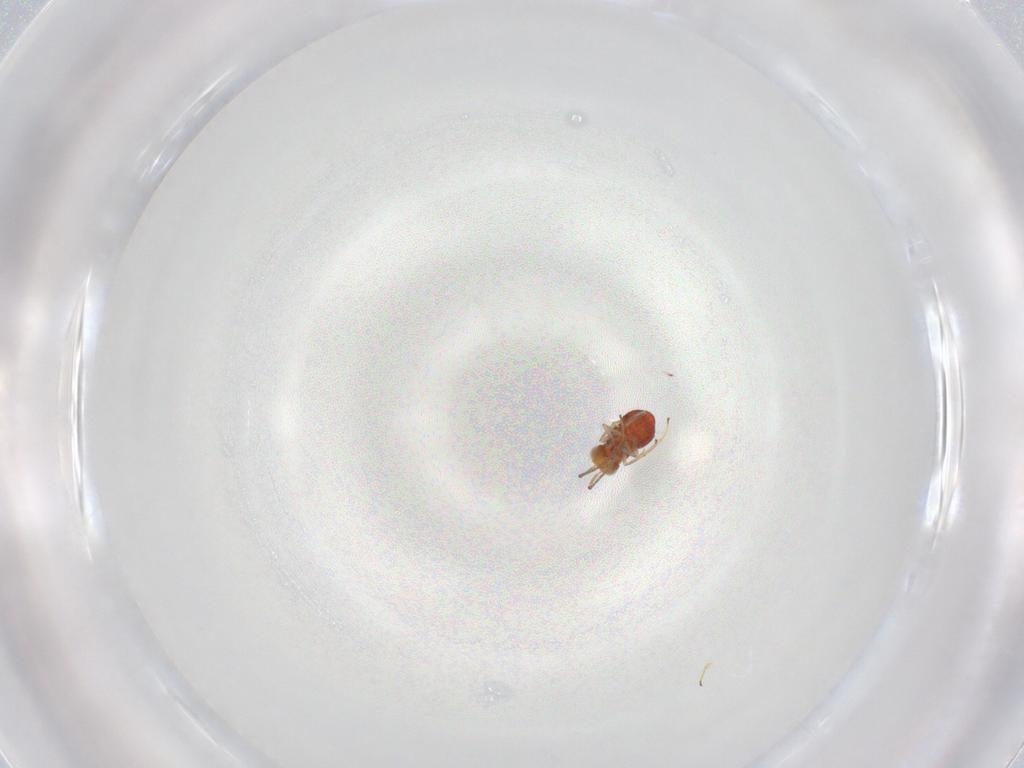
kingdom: Animalia
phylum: Arthropoda
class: Insecta
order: Hymenoptera
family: Encyrtidae
